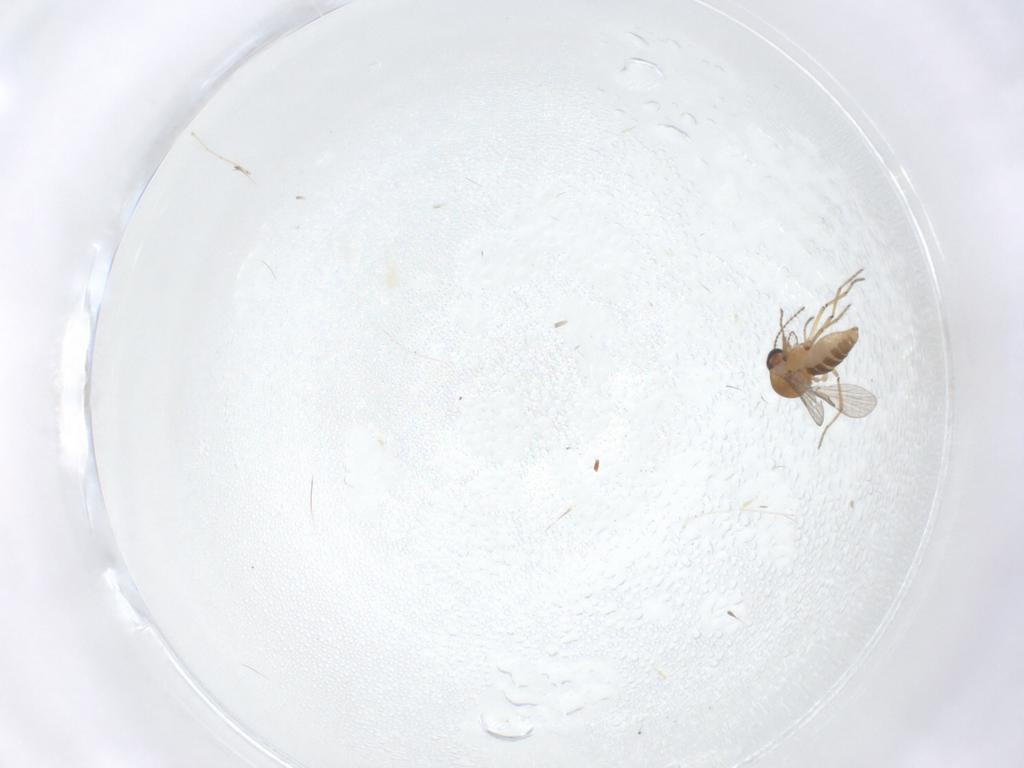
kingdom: Animalia
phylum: Arthropoda
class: Insecta
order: Diptera
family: Ceratopogonidae
